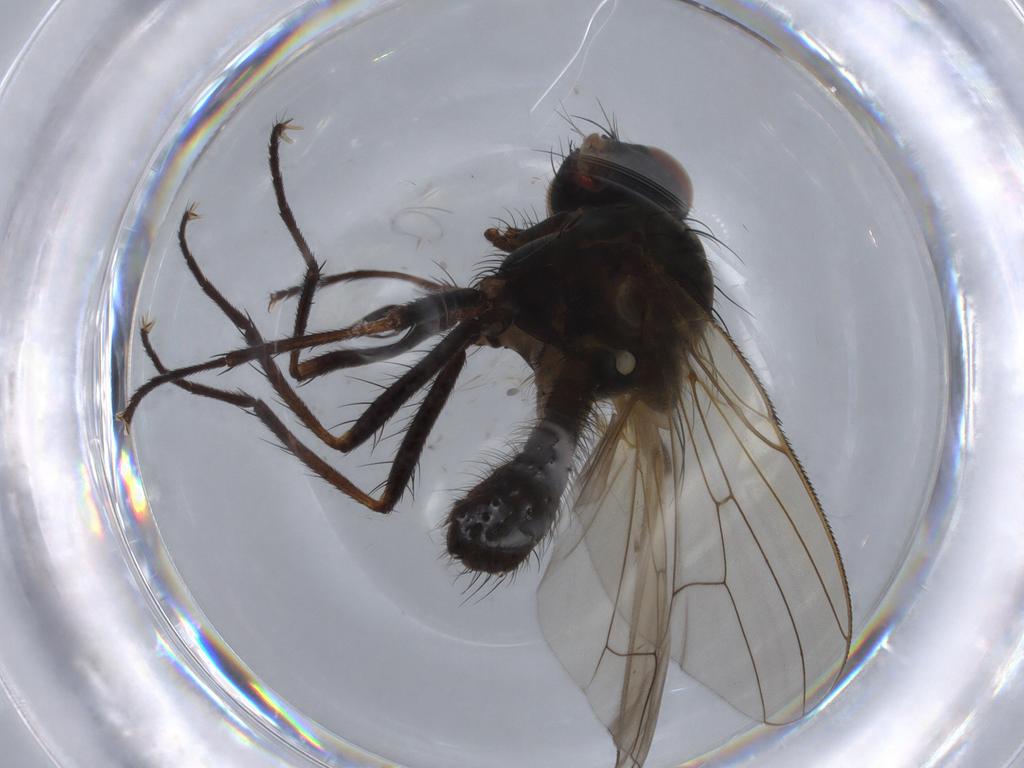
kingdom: Animalia
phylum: Arthropoda
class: Insecta
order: Diptera
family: Anthomyiidae
